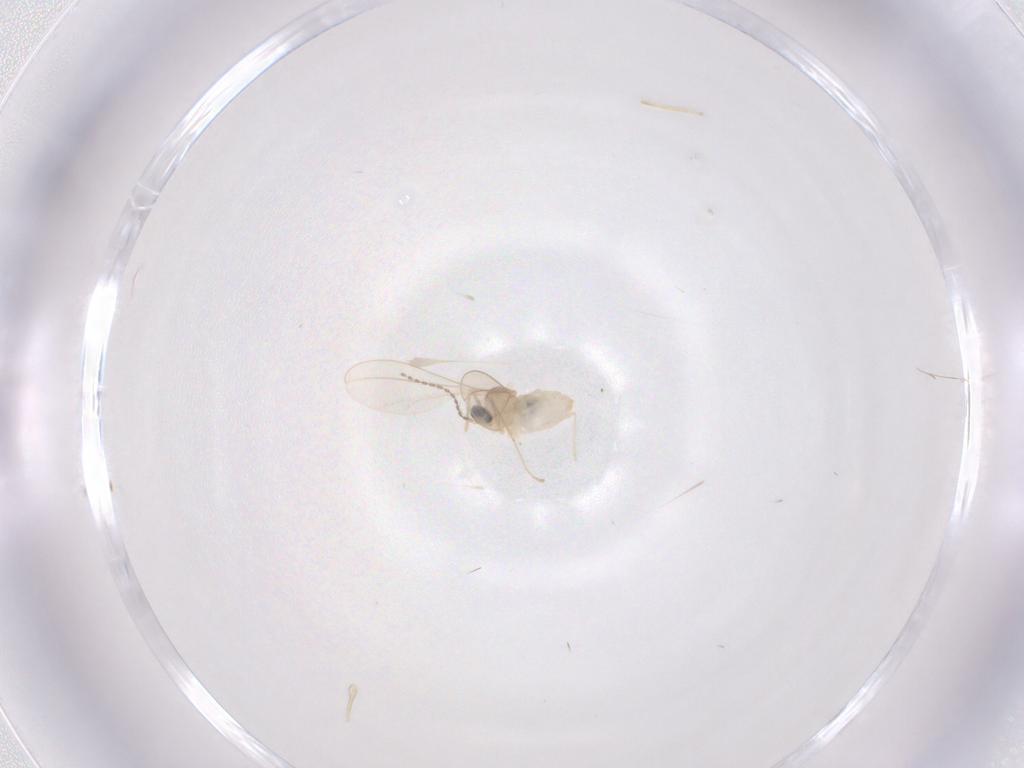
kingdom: Animalia
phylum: Arthropoda
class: Insecta
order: Diptera
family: Cecidomyiidae
